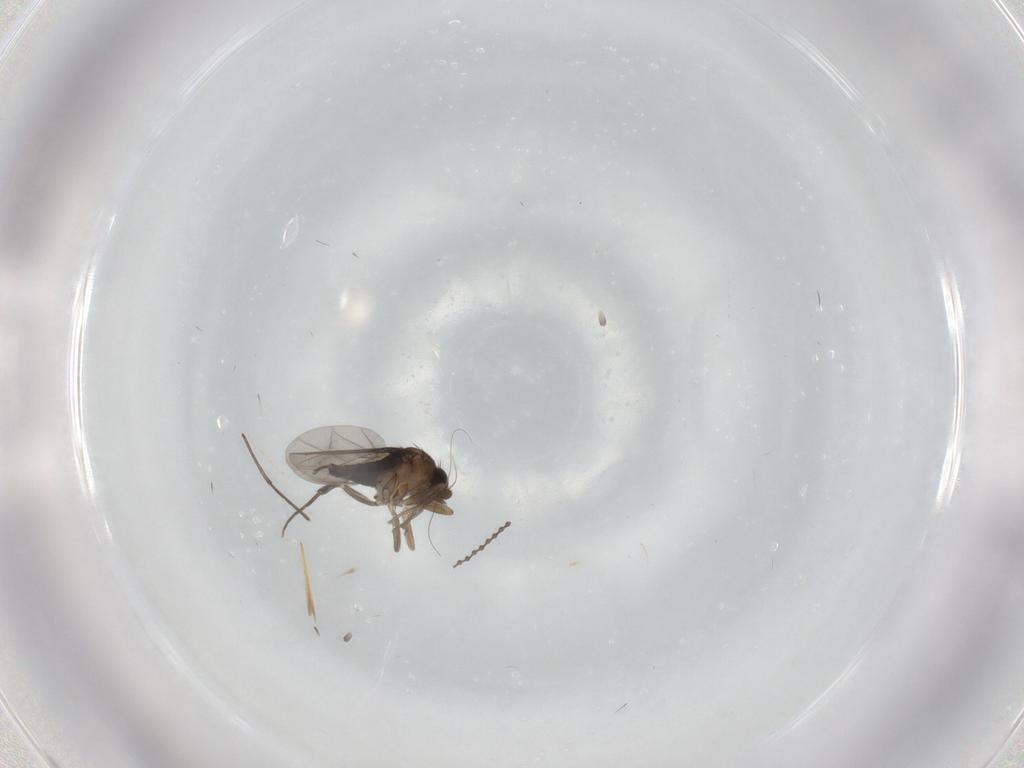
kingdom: Animalia
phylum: Arthropoda
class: Insecta
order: Diptera
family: Phoridae
